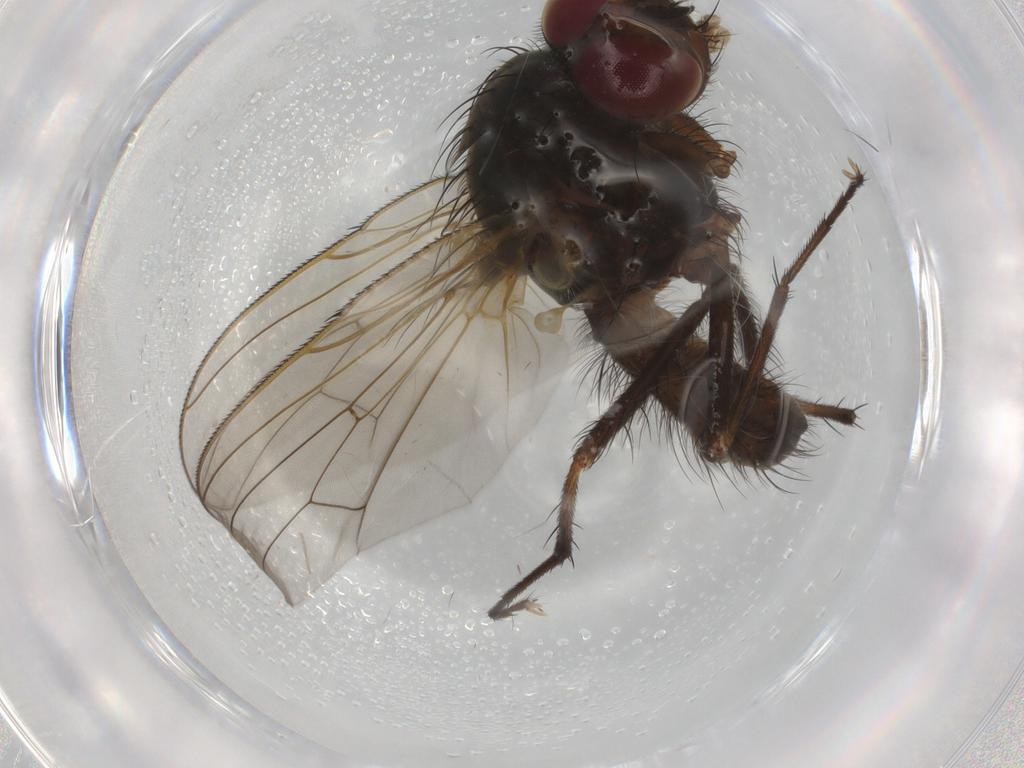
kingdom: Animalia
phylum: Arthropoda
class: Insecta
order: Diptera
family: Anthomyiidae
